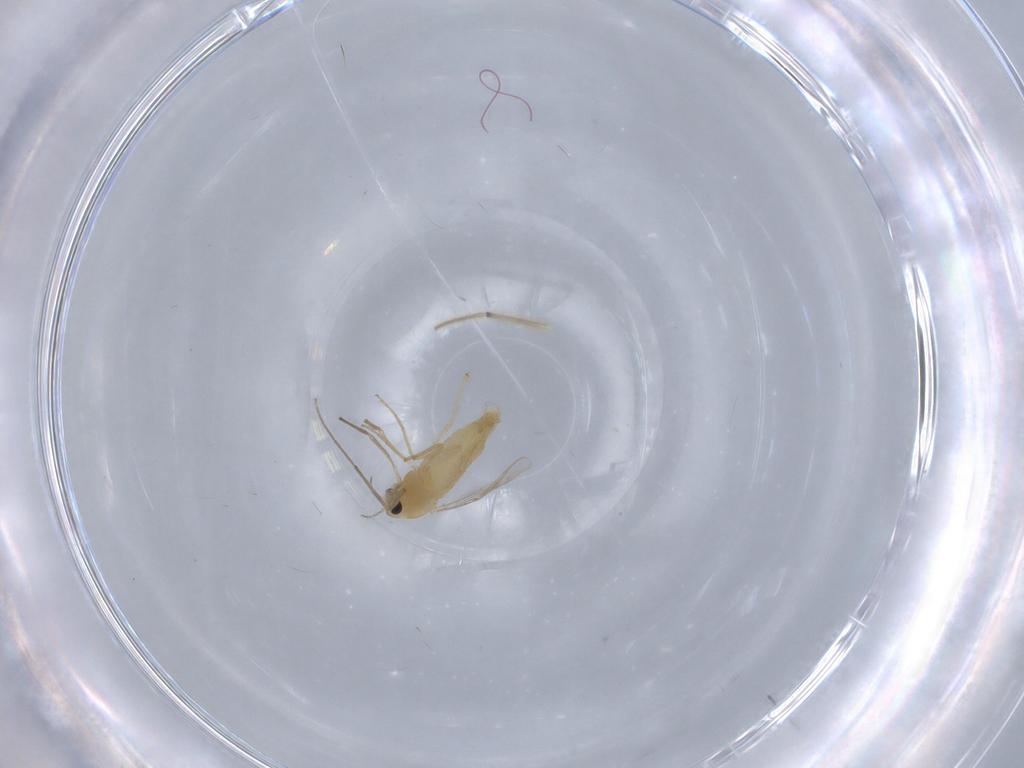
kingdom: Animalia
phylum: Arthropoda
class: Insecta
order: Diptera
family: Sciaridae
